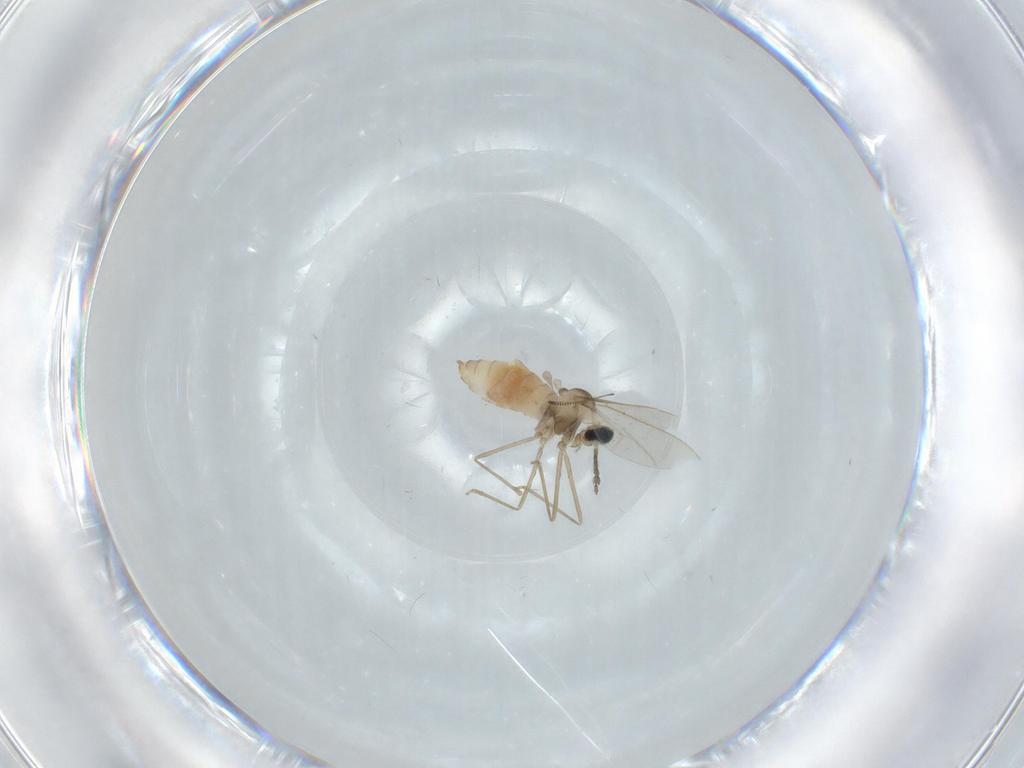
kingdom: Animalia
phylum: Arthropoda
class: Insecta
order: Diptera
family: Cecidomyiidae
